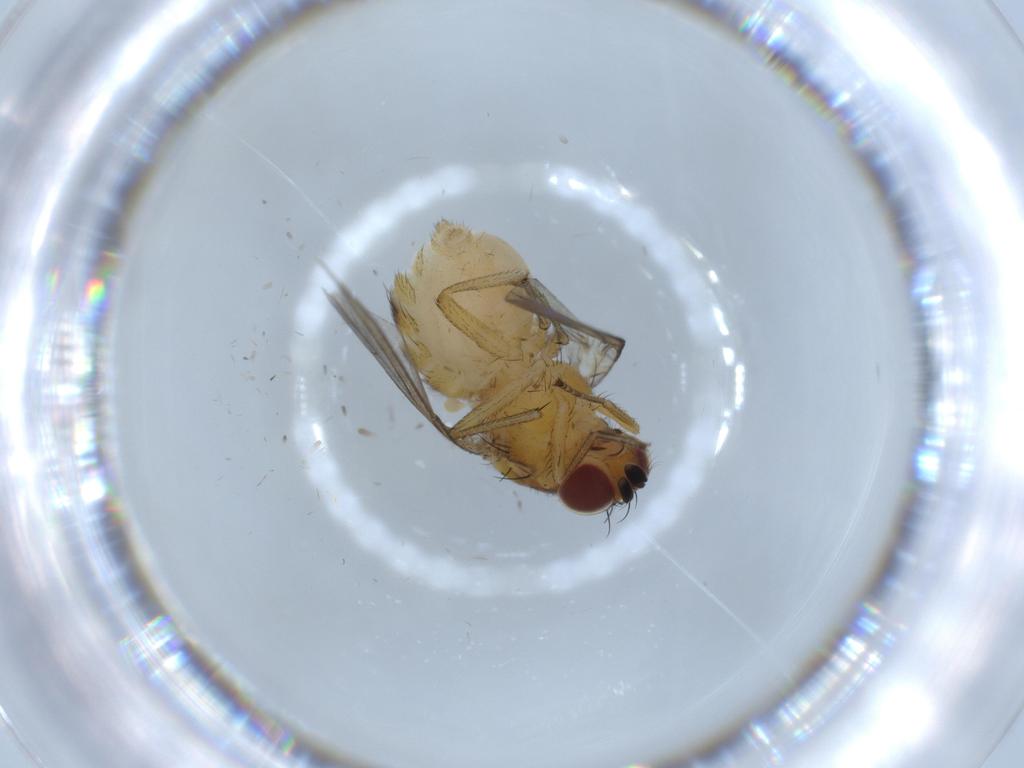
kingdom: Animalia
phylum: Arthropoda
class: Insecta
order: Diptera
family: Lauxaniidae
